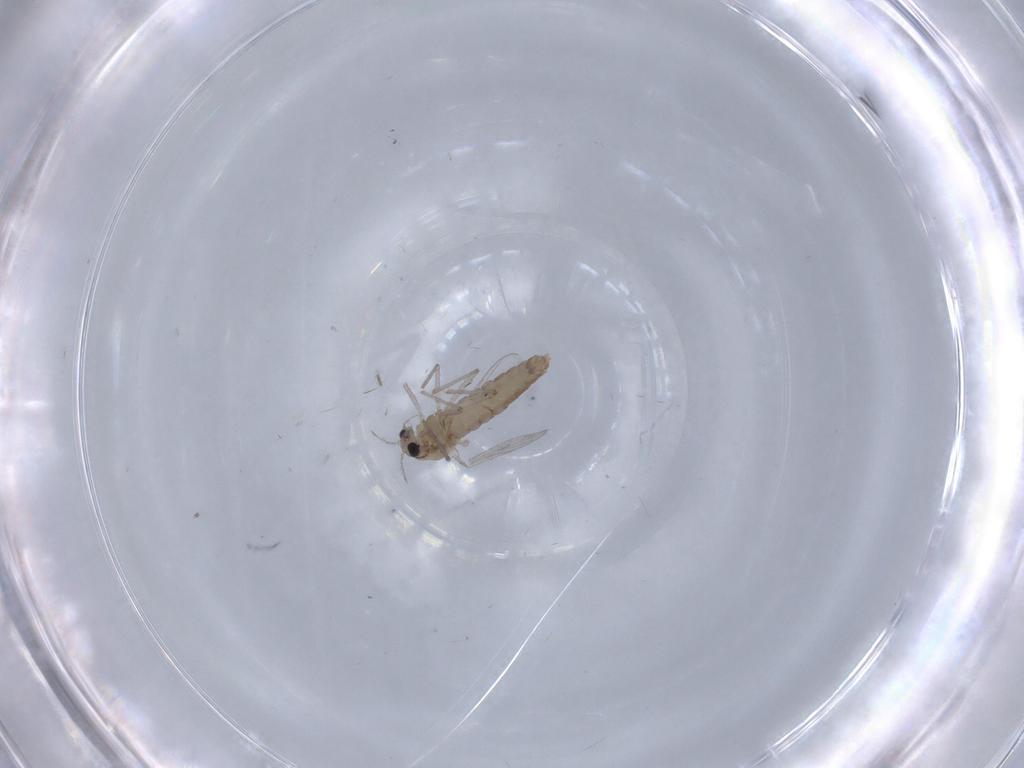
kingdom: Animalia
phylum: Arthropoda
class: Insecta
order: Diptera
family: Chironomidae
